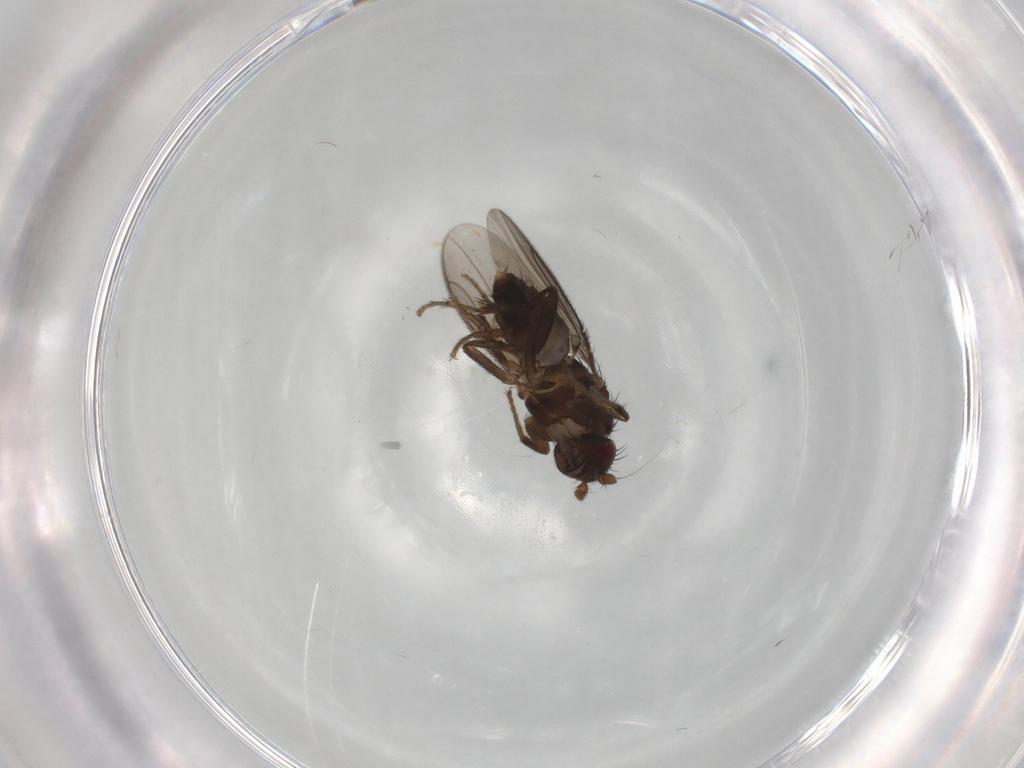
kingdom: Animalia
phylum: Arthropoda
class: Insecta
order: Diptera
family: Sphaeroceridae
